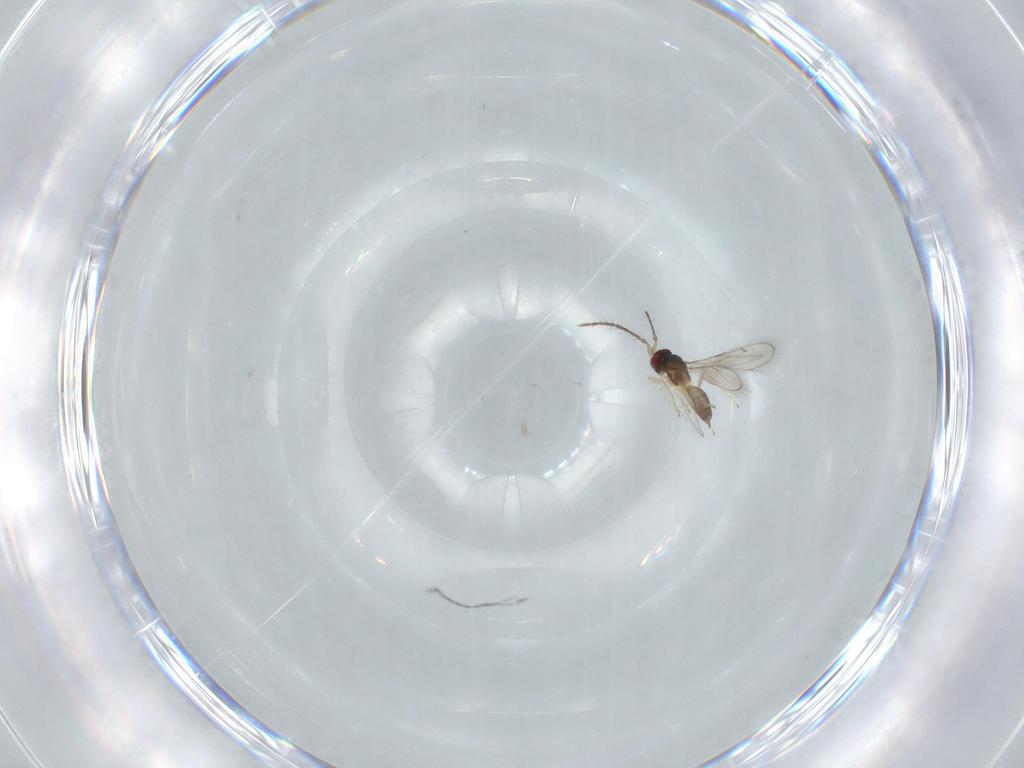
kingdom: Animalia
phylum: Arthropoda
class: Insecta
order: Hymenoptera
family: Eulophidae
